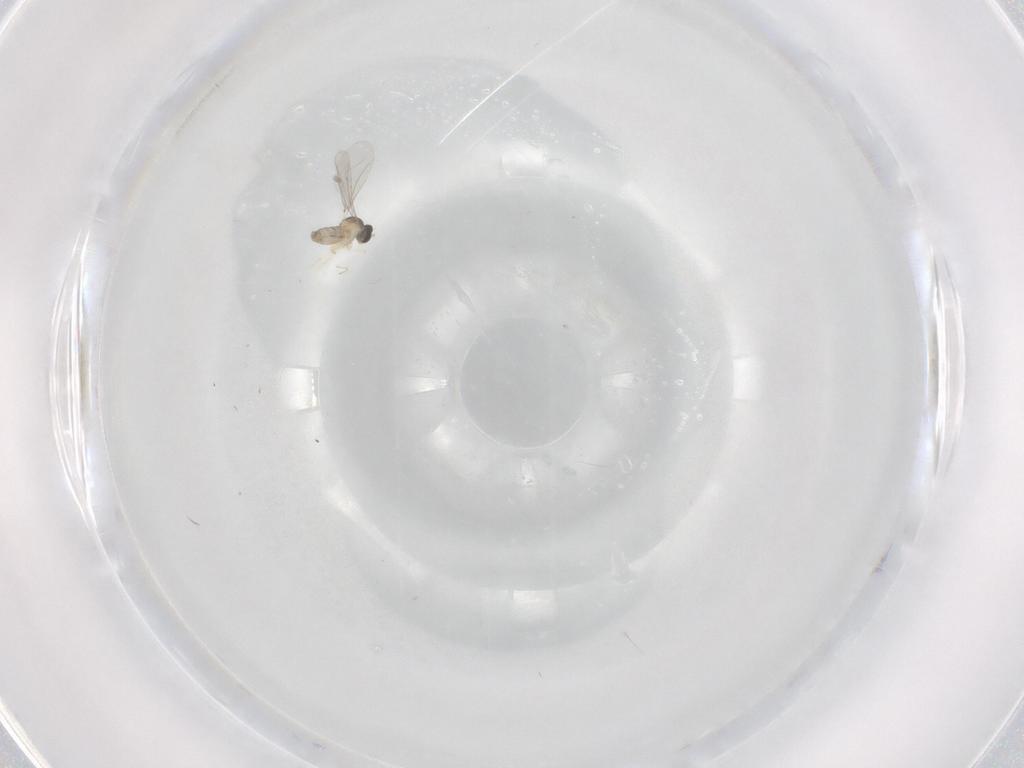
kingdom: Animalia
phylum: Arthropoda
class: Insecta
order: Diptera
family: Cecidomyiidae
